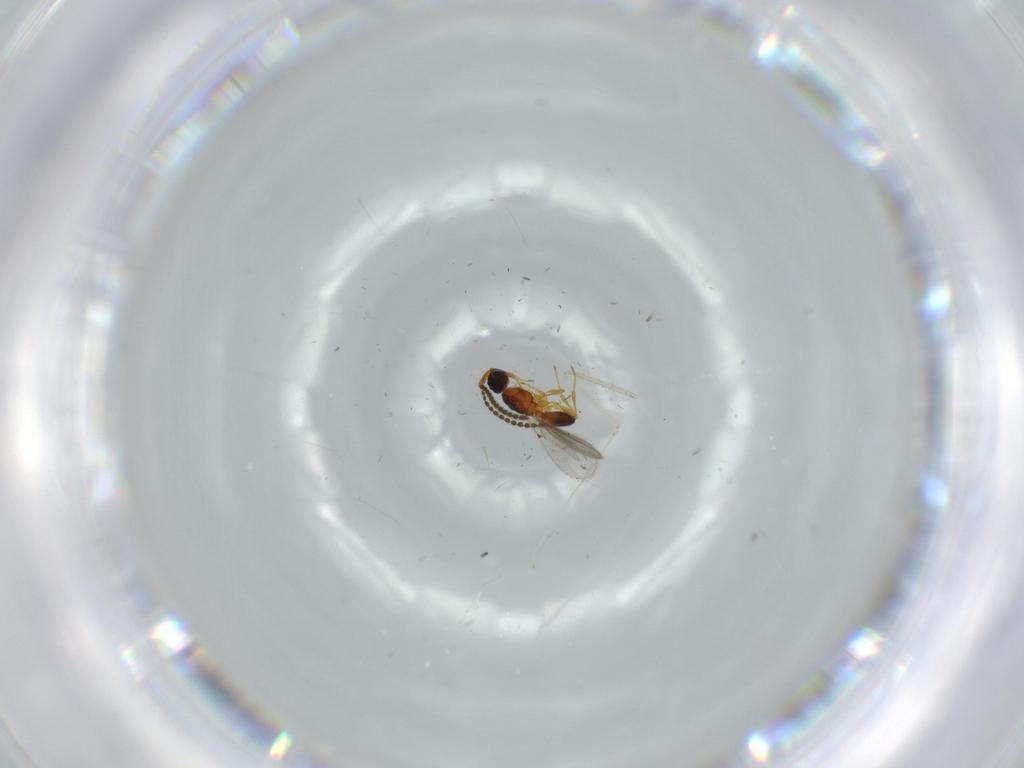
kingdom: Animalia
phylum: Arthropoda
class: Insecta
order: Hymenoptera
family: Diapriidae
